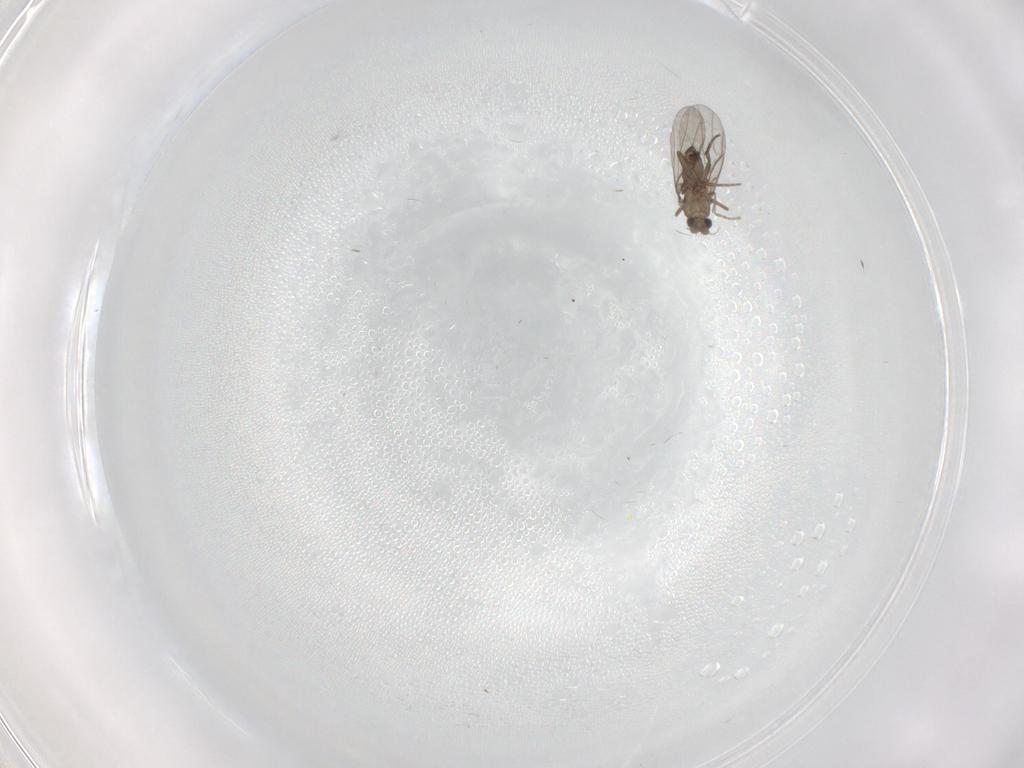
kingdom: Animalia
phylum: Arthropoda
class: Insecta
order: Diptera
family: Phoridae
